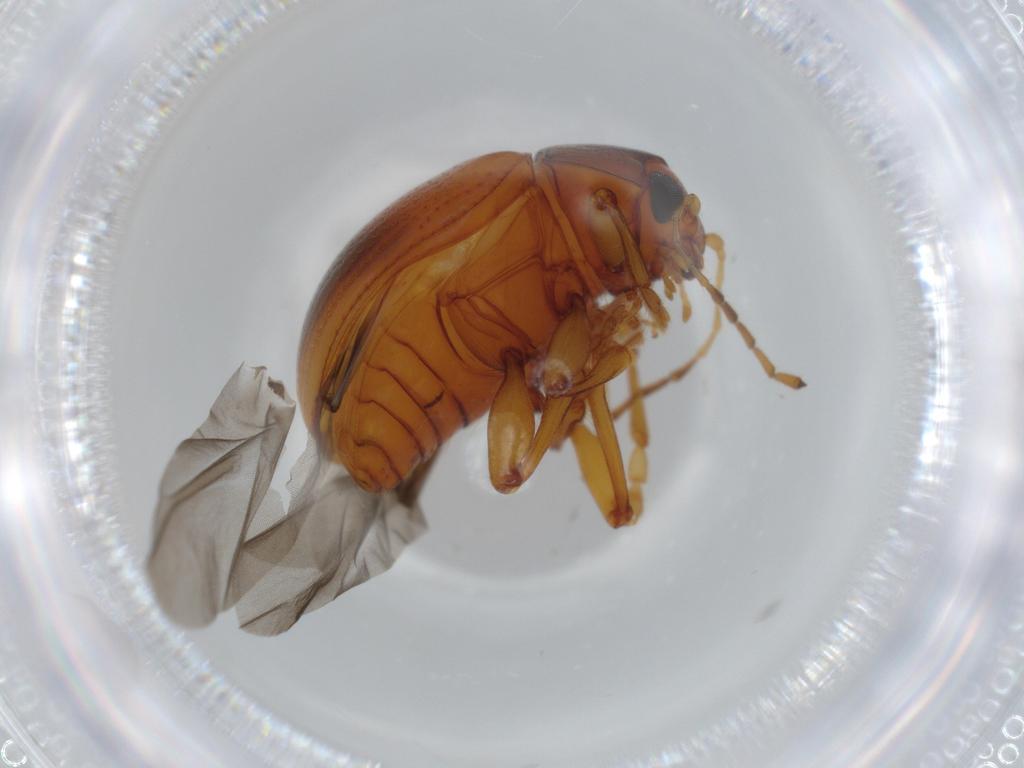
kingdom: Animalia
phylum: Arthropoda
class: Insecta
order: Coleoptera
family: Chrysomelidae
